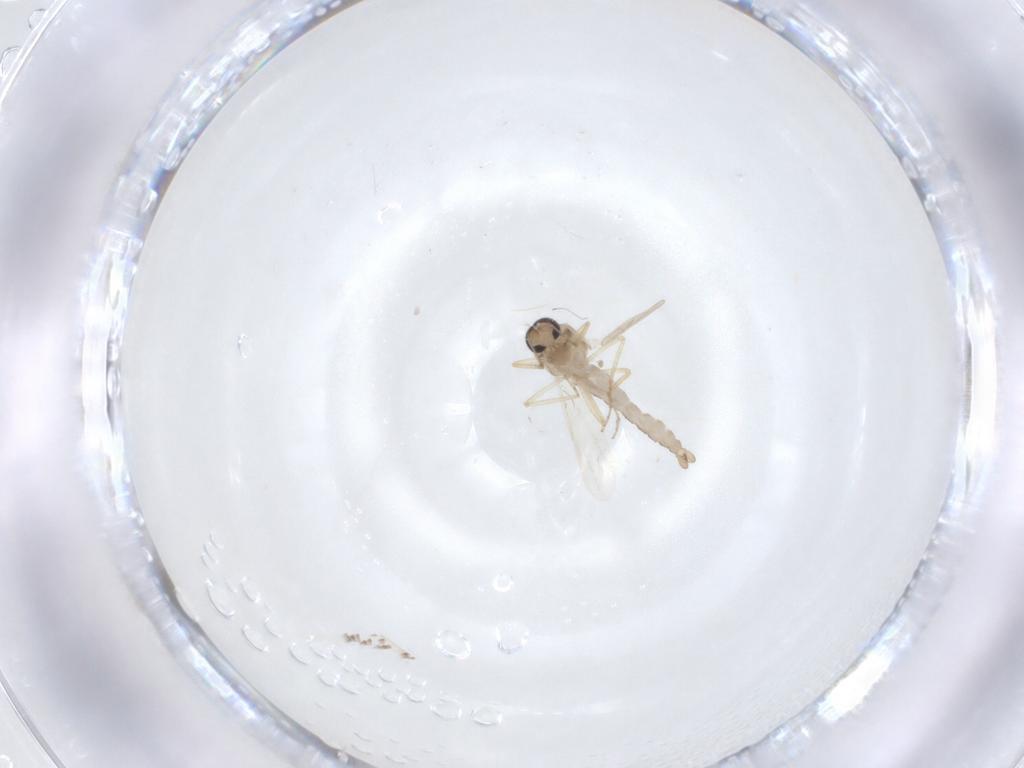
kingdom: Animalia
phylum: Arthropoda
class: Insecta
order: Diptera
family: Ceratopogonidae
